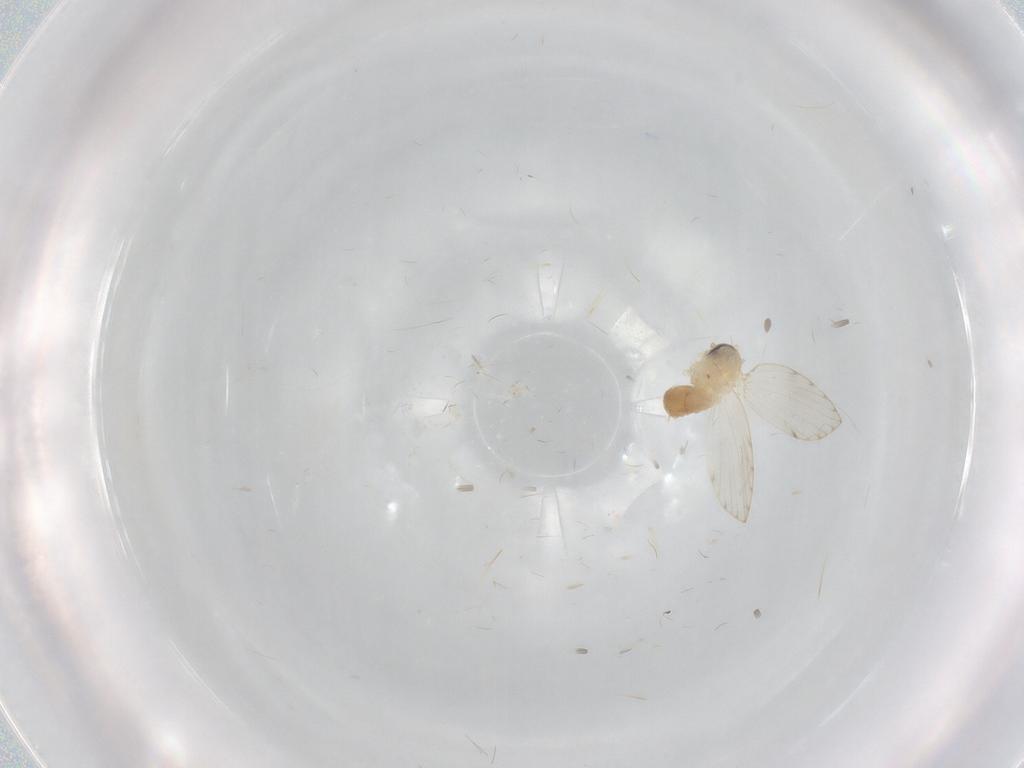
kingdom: Animalia
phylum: Arthropoda
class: Insecta
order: Diptera
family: Psychodidae
